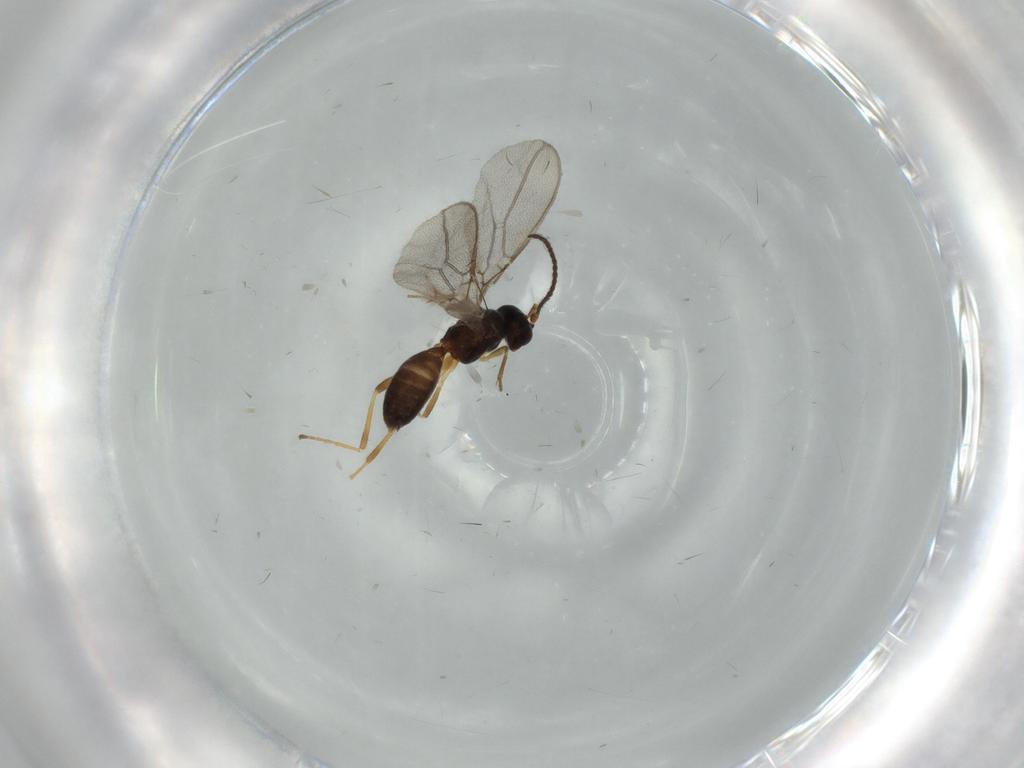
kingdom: Animalia
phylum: Arthropoda
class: Insecta
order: Hymenoptera
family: Braconidae
